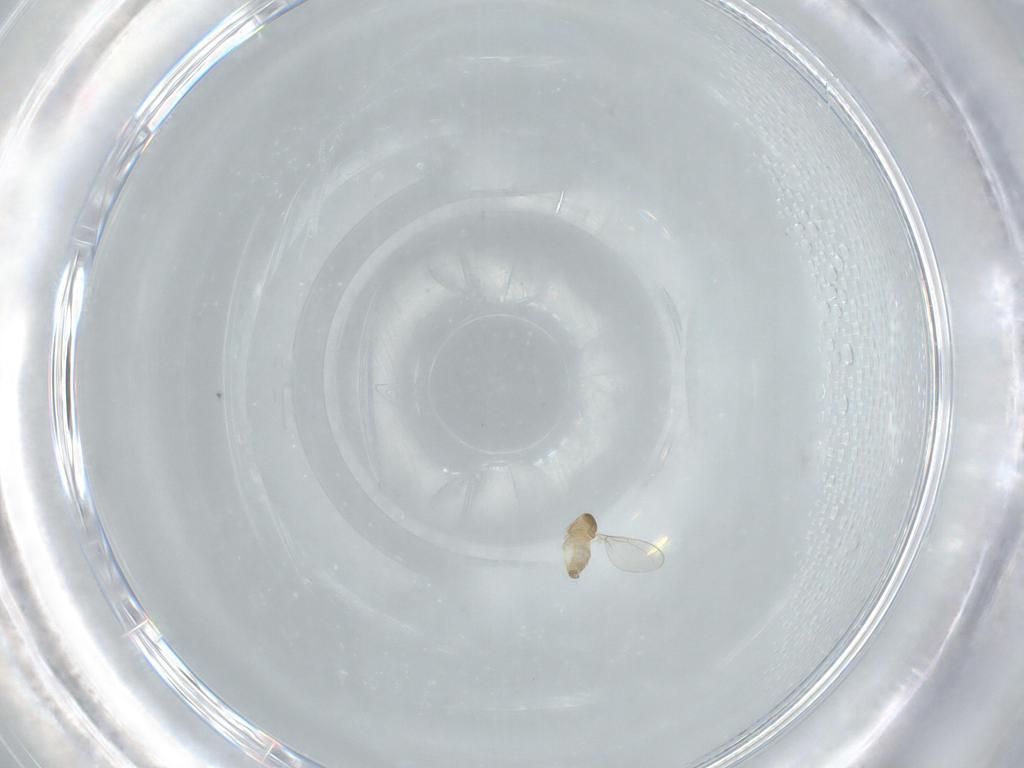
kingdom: Animalia
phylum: Arthropoda
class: Insecta
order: Diptera
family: Cecidomyiidae
